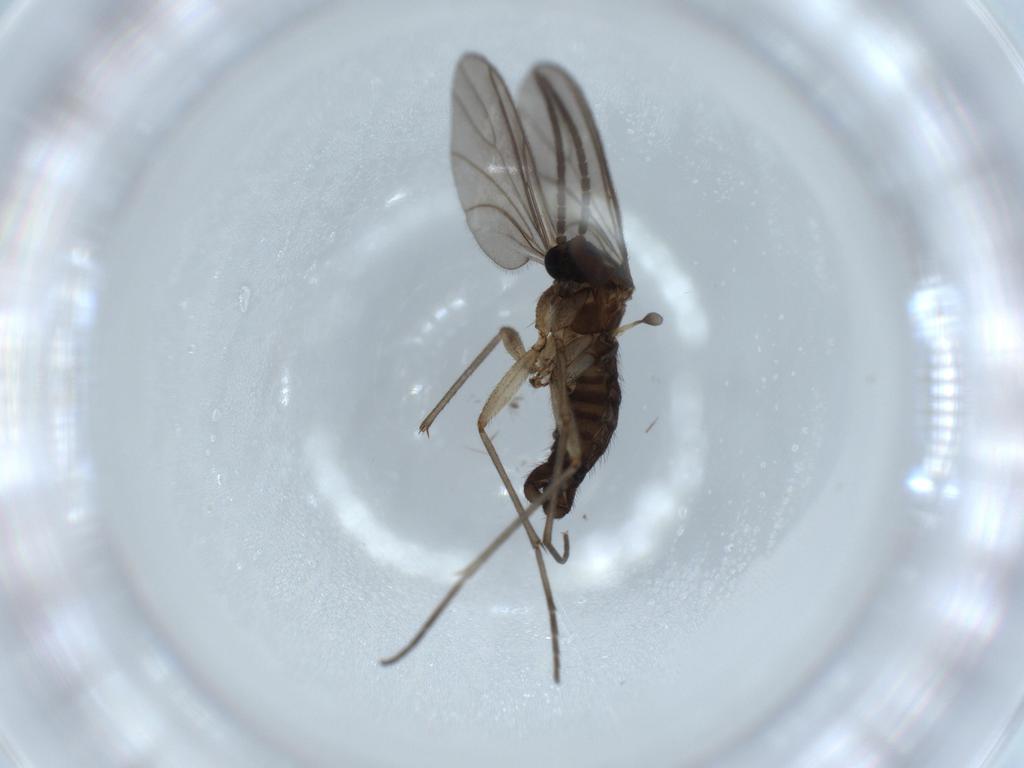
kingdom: Animalia
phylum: Arthropoda
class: Insecta
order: Diptera
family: Sciaridae
